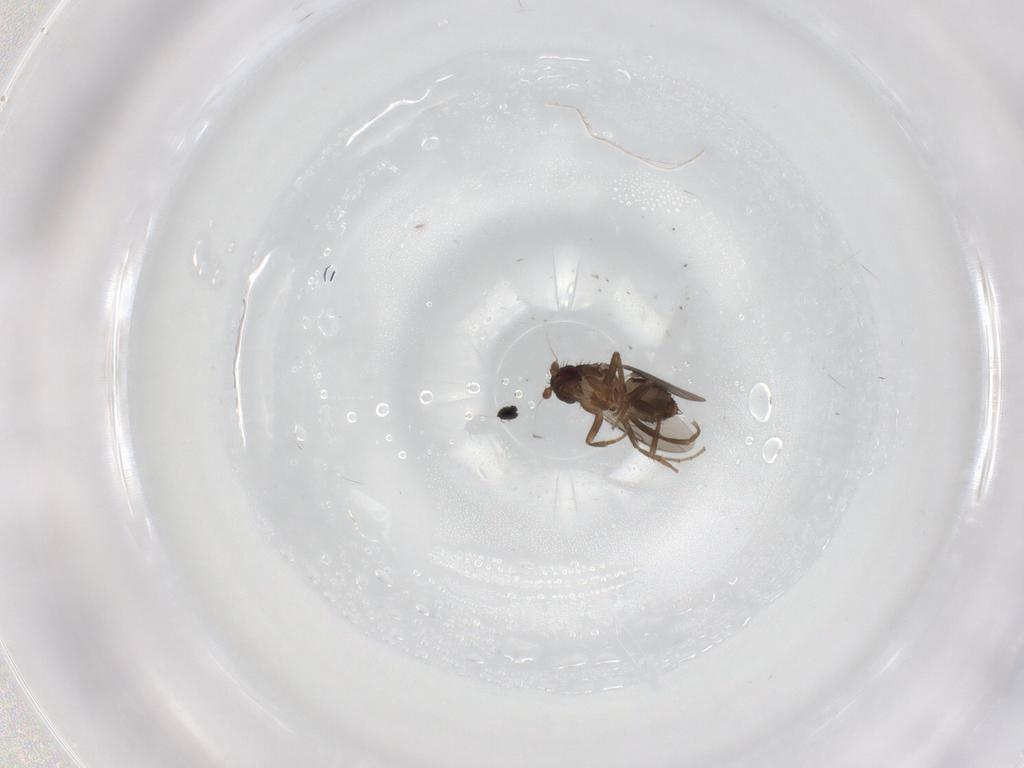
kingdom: Animalia
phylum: Arthropoda
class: Insecta
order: Diptera
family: Sphaeroceridae
